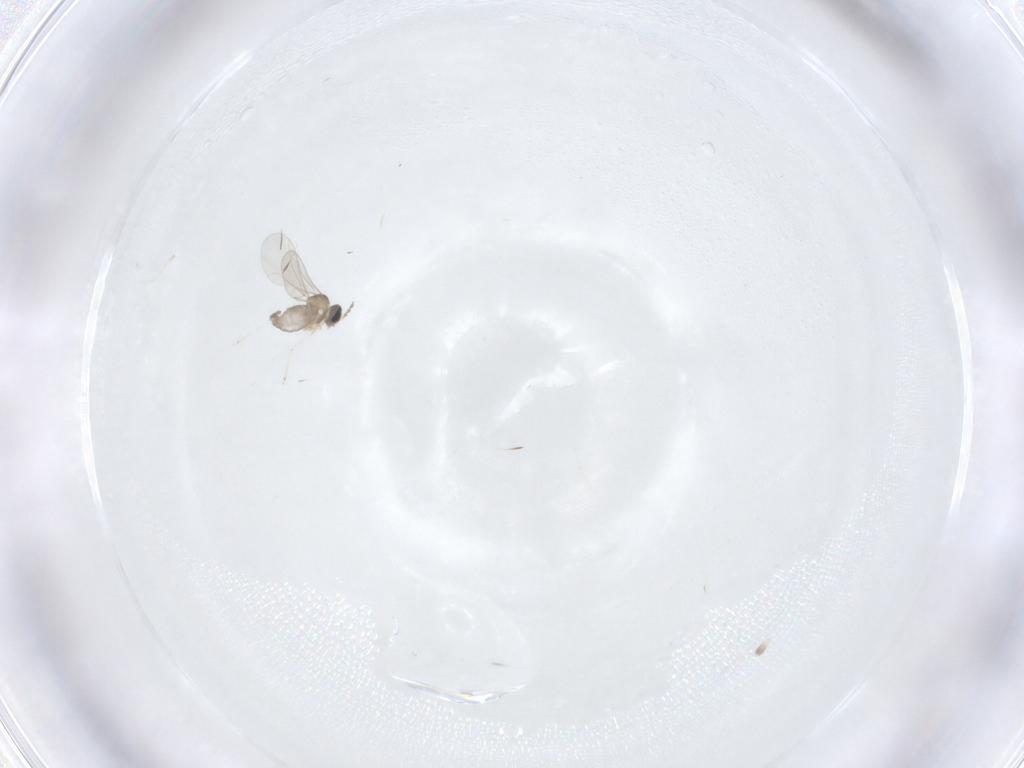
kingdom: Animalia
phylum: Arthropoda
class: Insecta
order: Diptera
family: Cecidomyiidae
